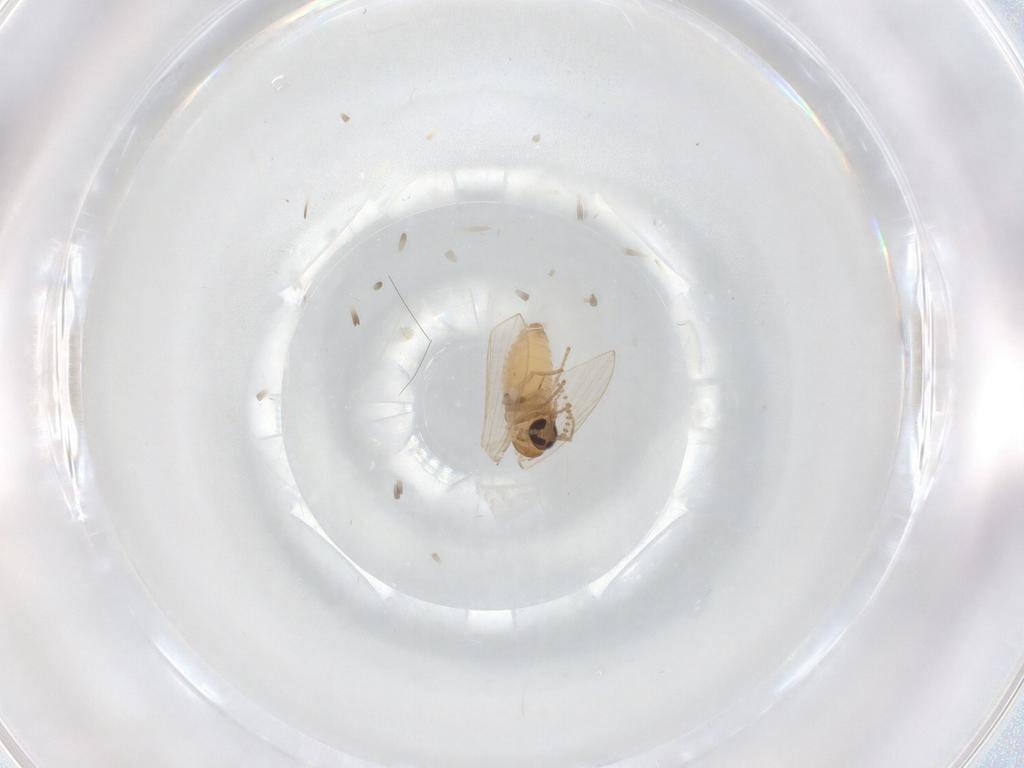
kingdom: Animalia
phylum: Arthropoda
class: Insecta
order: Diptera
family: Psychodidae
